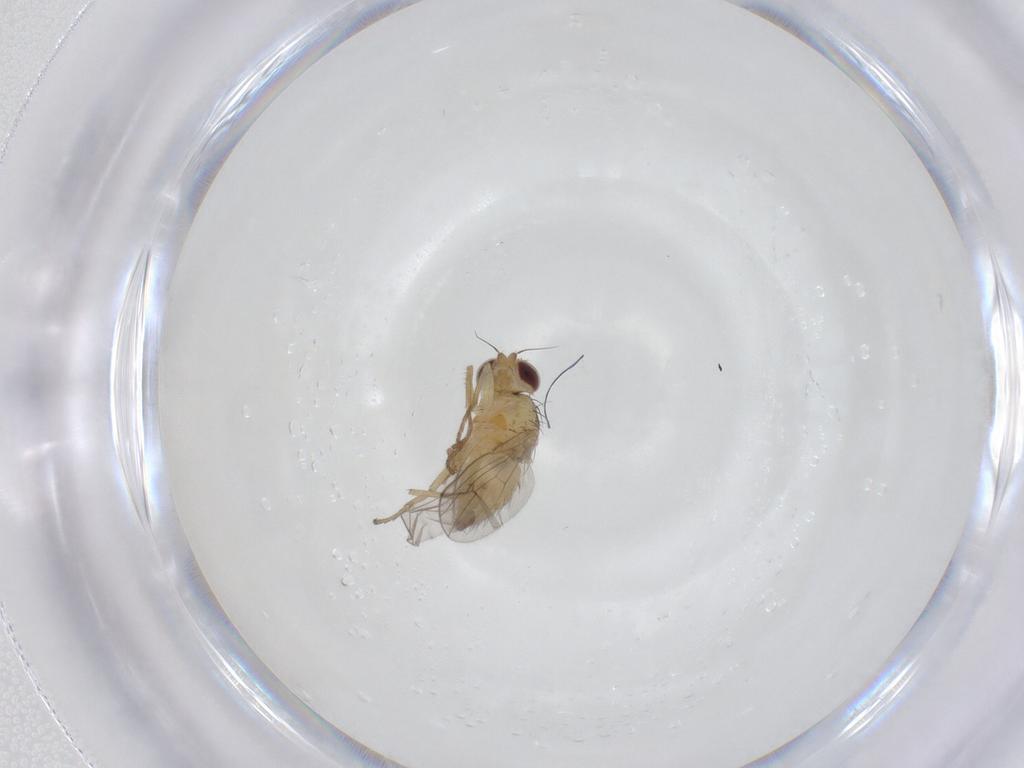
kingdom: Animalia
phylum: Arthropoda
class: Insecta
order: Diptera
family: Agromyzidae
